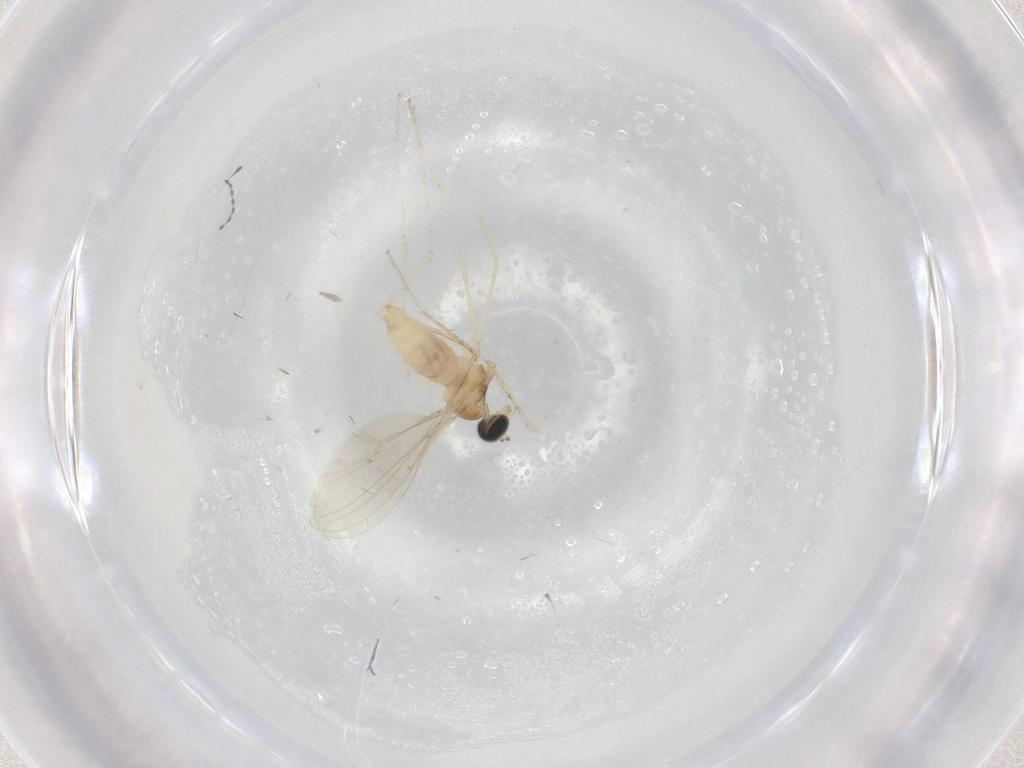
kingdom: Animalia
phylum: Arthropoda
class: Insecta
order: Diptera
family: Cecidomyiidae
